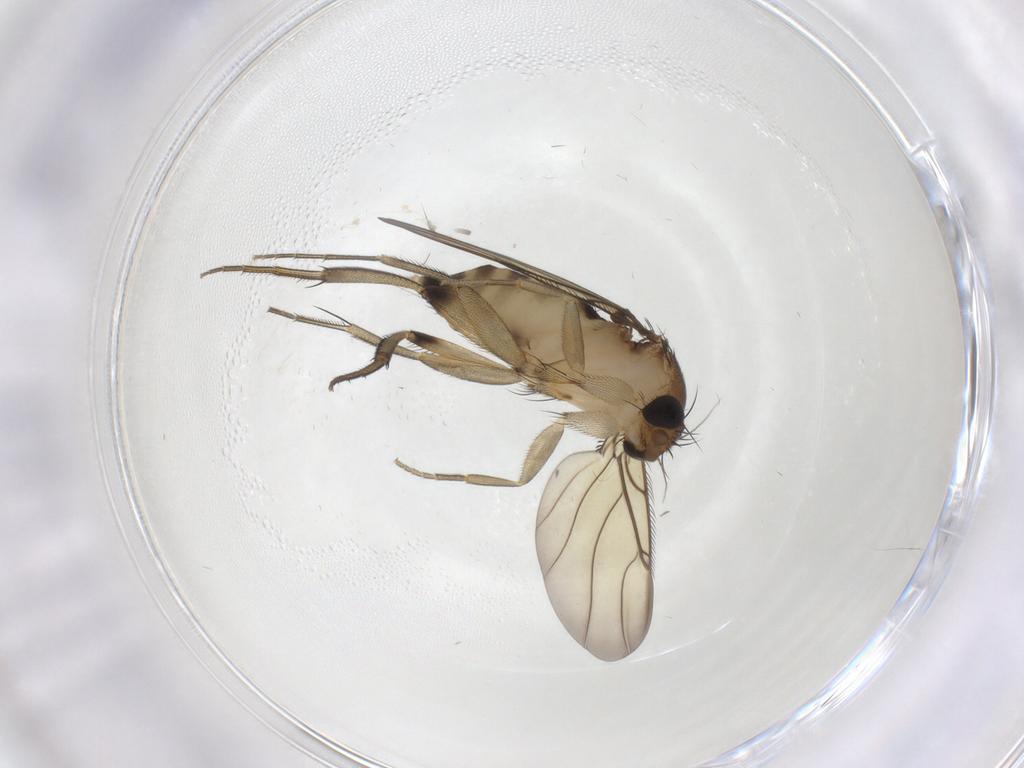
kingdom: Animalia
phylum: Arthropoda
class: Insecta
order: Diptera
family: Phoridae
